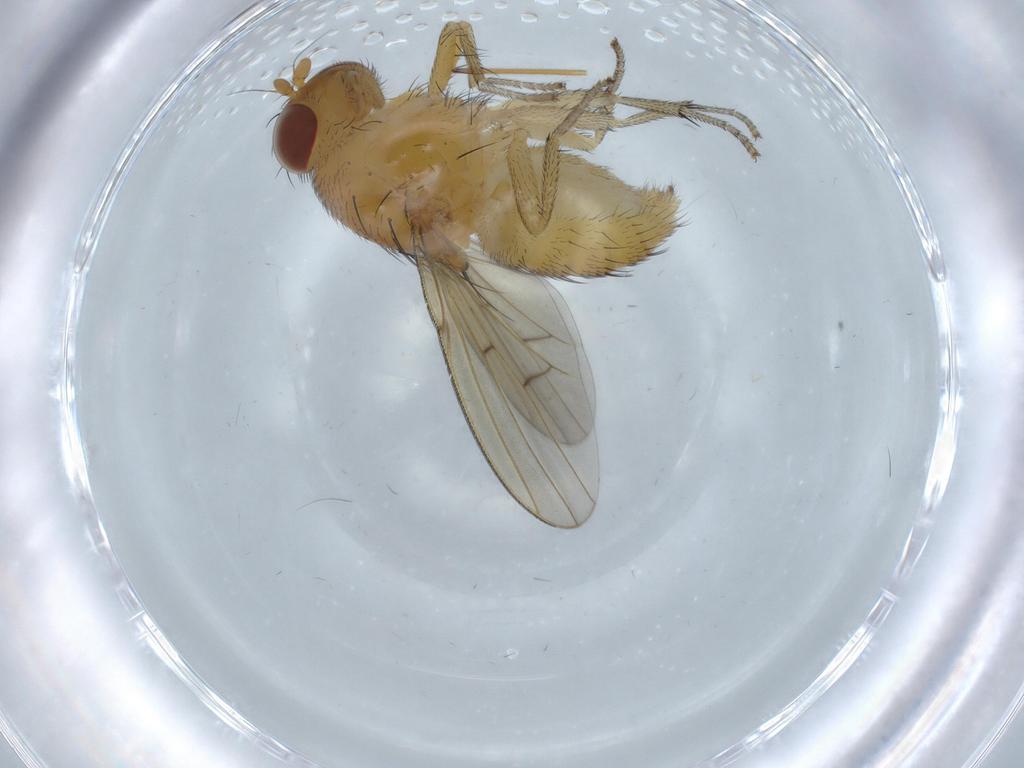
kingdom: Animalia
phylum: Arthropoda
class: Insecta
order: Diptera
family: Cecidomyiidae
